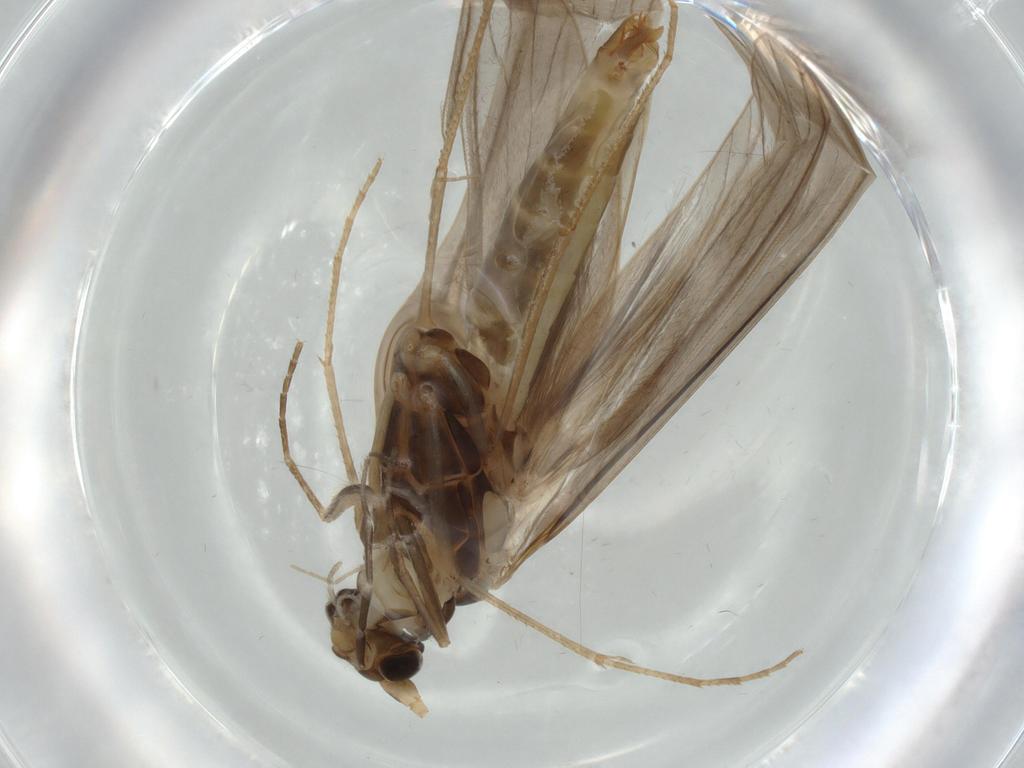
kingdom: Animalia
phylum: Arthropoda
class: Insecta
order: Trichoptera
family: Leptoceridae
